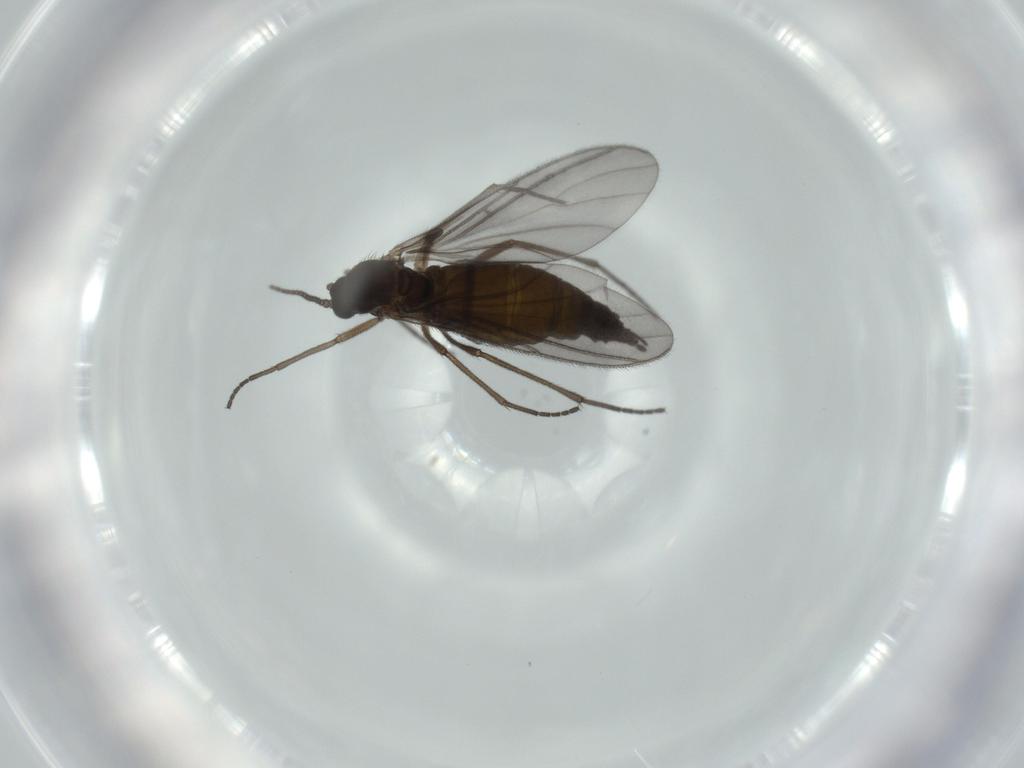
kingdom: Animalia
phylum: Arthropoda
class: Insecta
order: Diptera
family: Sciaridae
